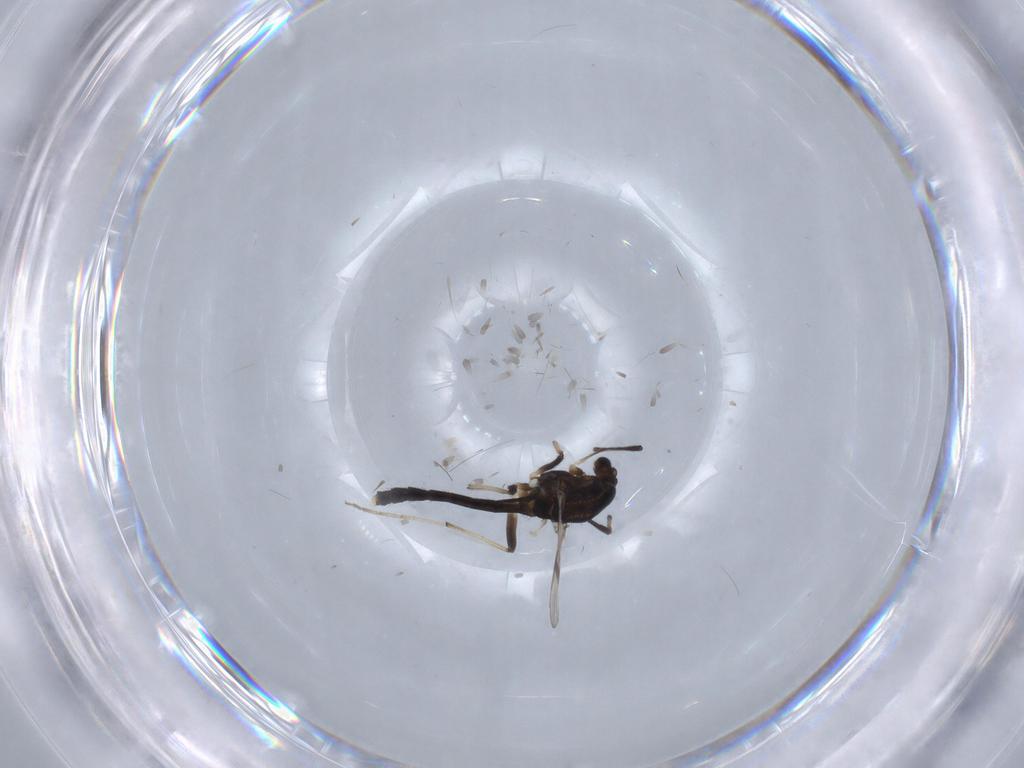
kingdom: Animalia
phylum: Arthropoda
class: Insecta
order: Diptera
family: Chironomidae
